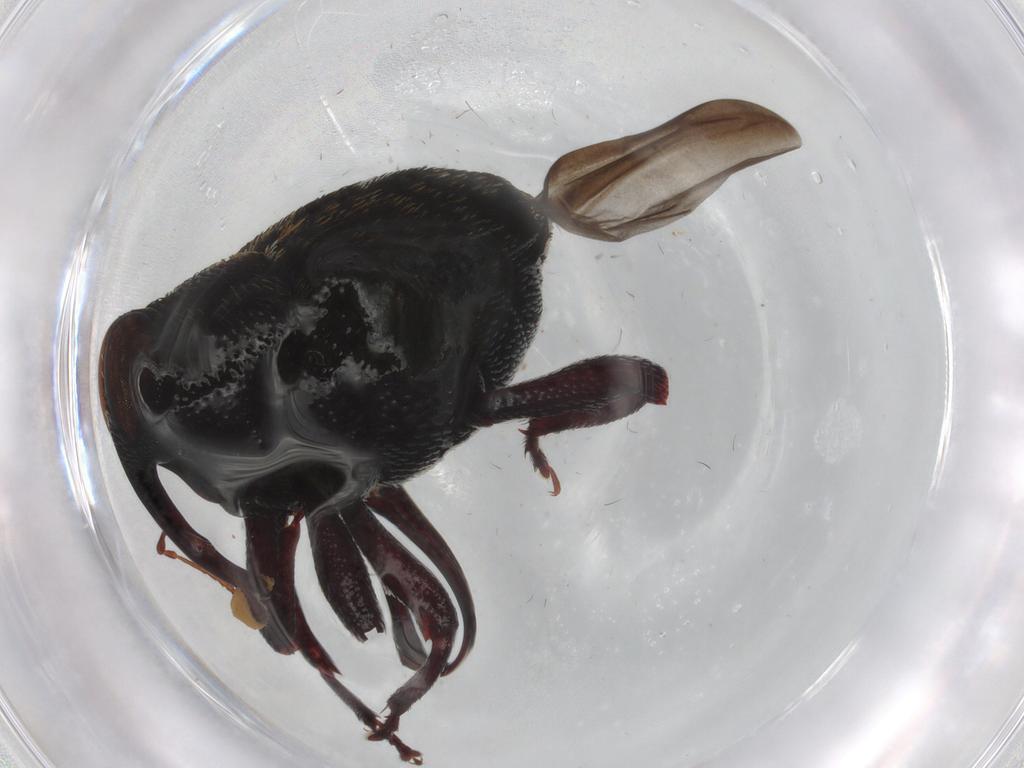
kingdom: Animalia
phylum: Arthropoda
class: Insecta
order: Coleoptera
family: Curculionidae
